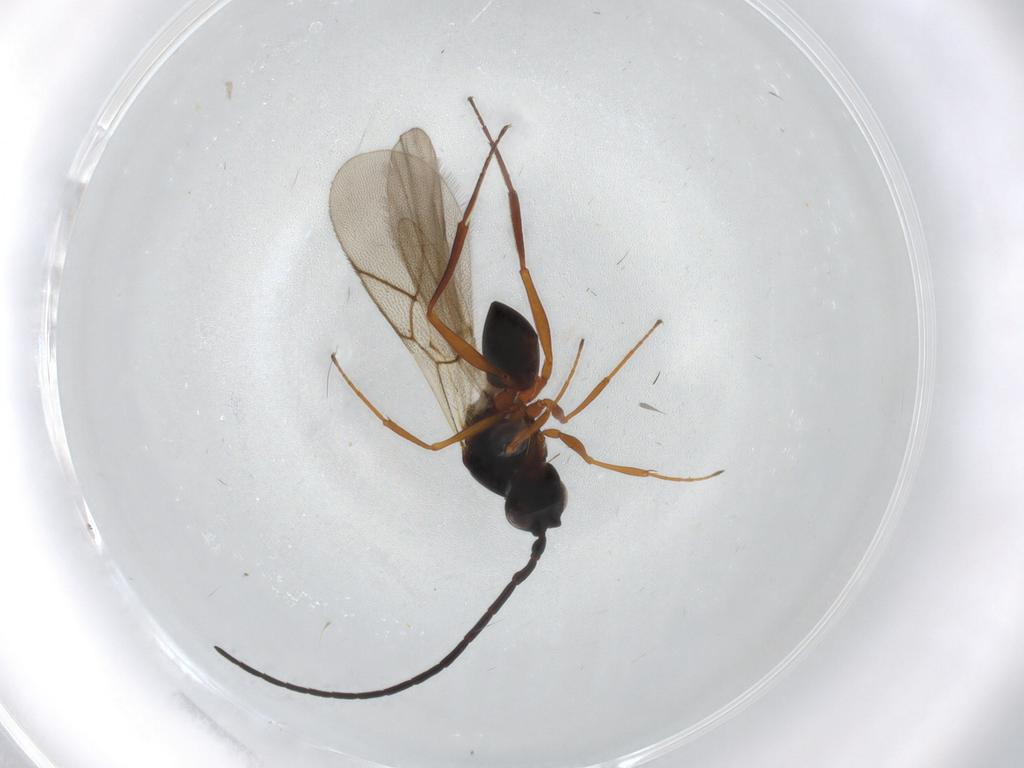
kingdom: Animalia
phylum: Arthropoda
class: Insecta
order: Hymenoptera
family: Figitidae
